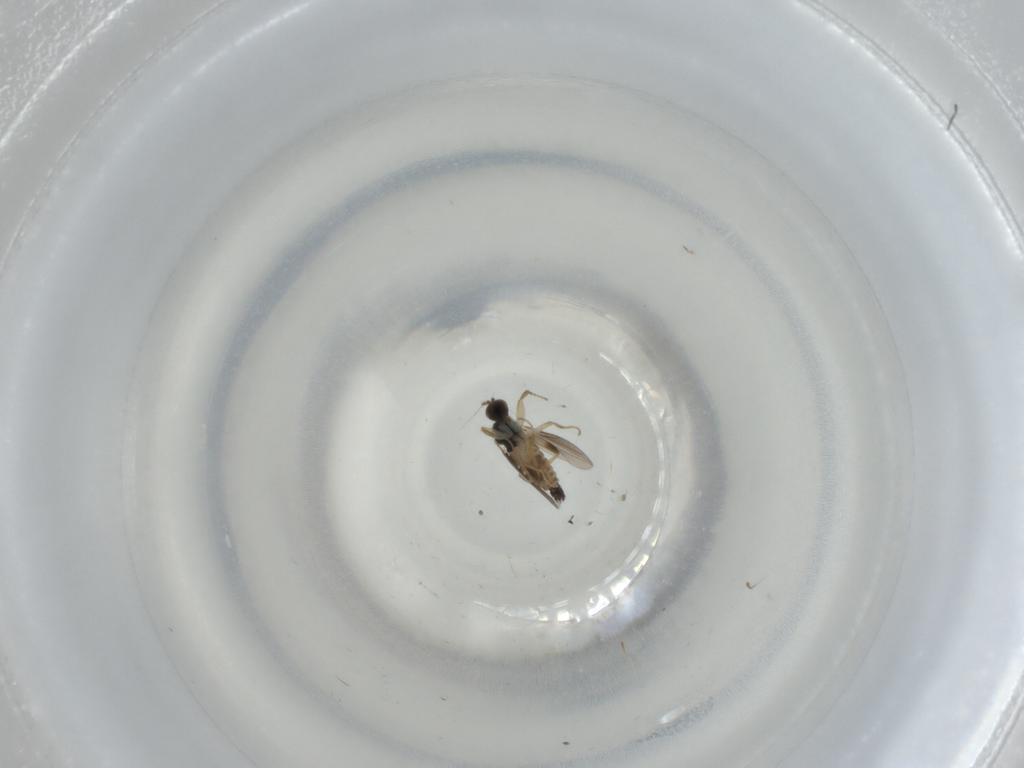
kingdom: Animalia
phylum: Arthropoda
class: Insecta
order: Diptera
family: Hybotidae
